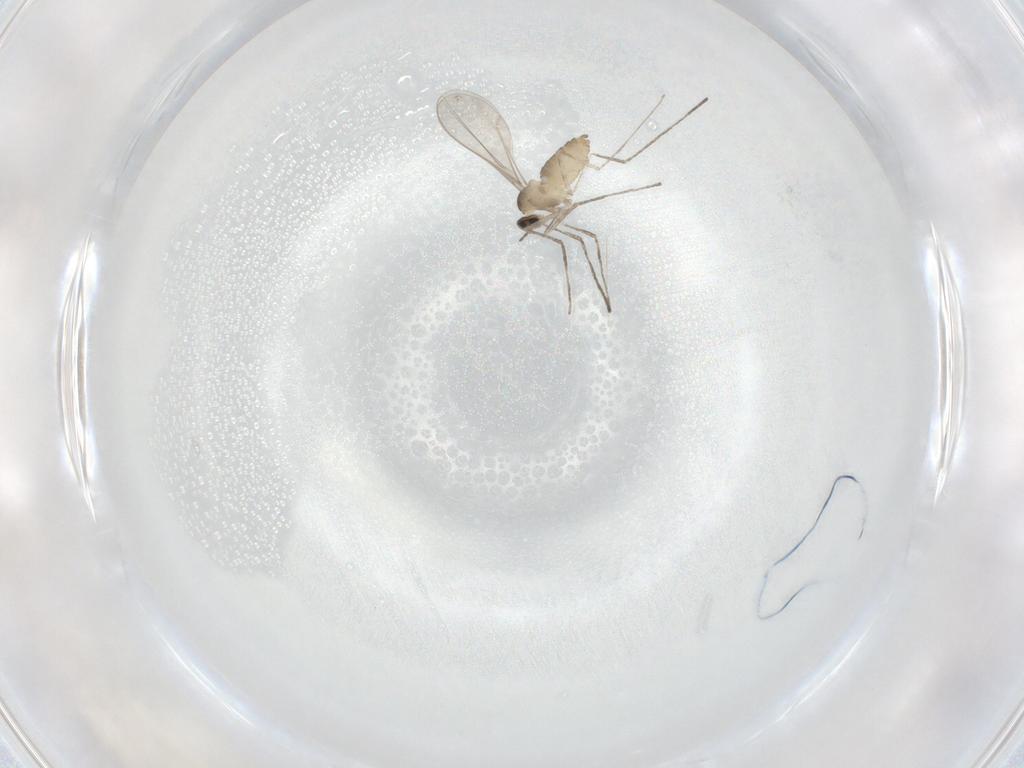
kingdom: Animalia
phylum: Arthropoda
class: Insecta
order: Diptera
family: Cecidomyiidae
